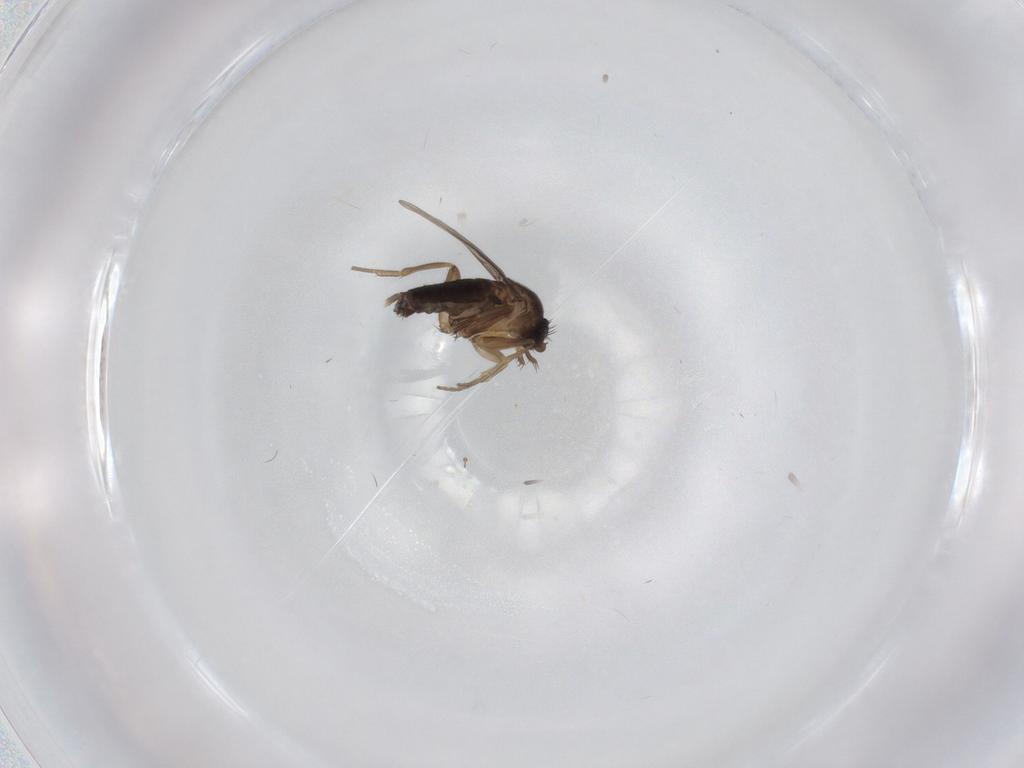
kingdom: Animalia
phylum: Arthropoda
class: Insecta
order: Diptera
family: Phoridae
